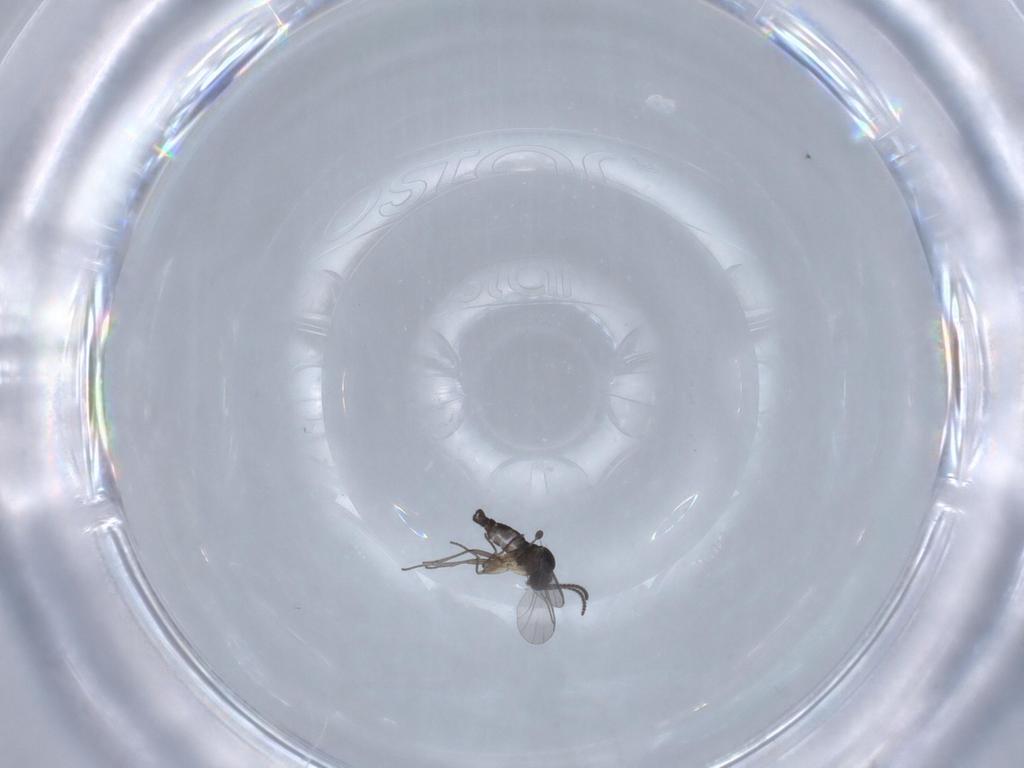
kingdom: Animalia
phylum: Arthropoda
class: Insecta
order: Diptera
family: Sciaridae
